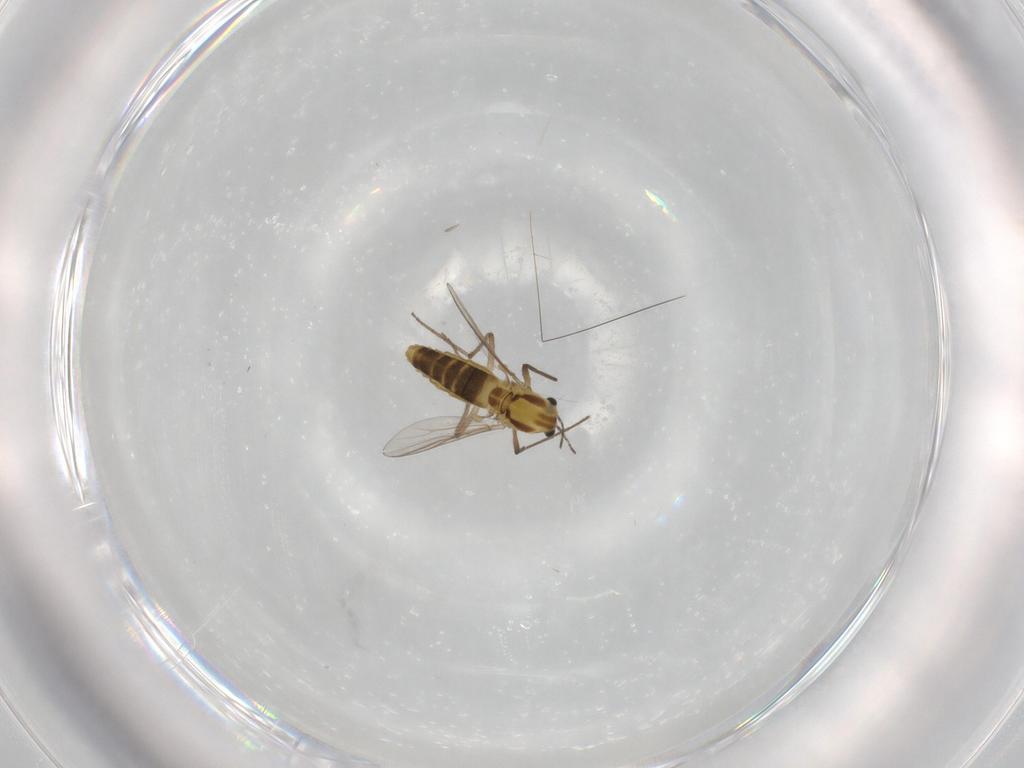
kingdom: Animalia
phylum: Arthropoda
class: Insecta
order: Diptera
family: Chironomidae
